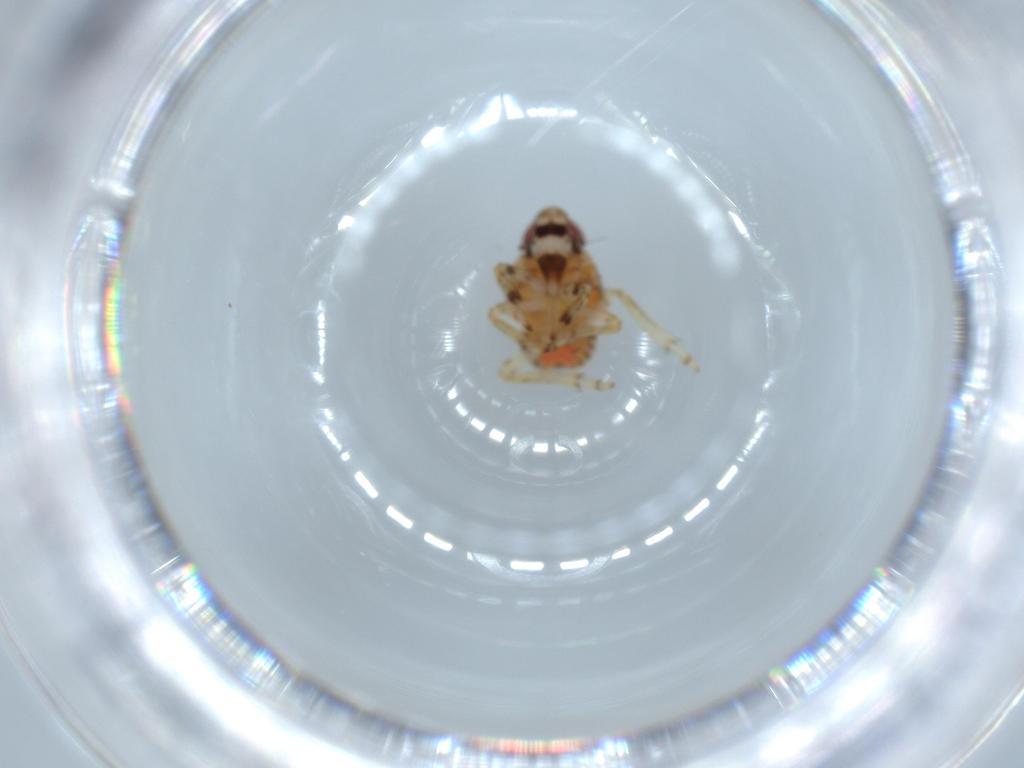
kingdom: Animalia
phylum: Arthropoda
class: Insecta
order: Hemiptera
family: Issidae
